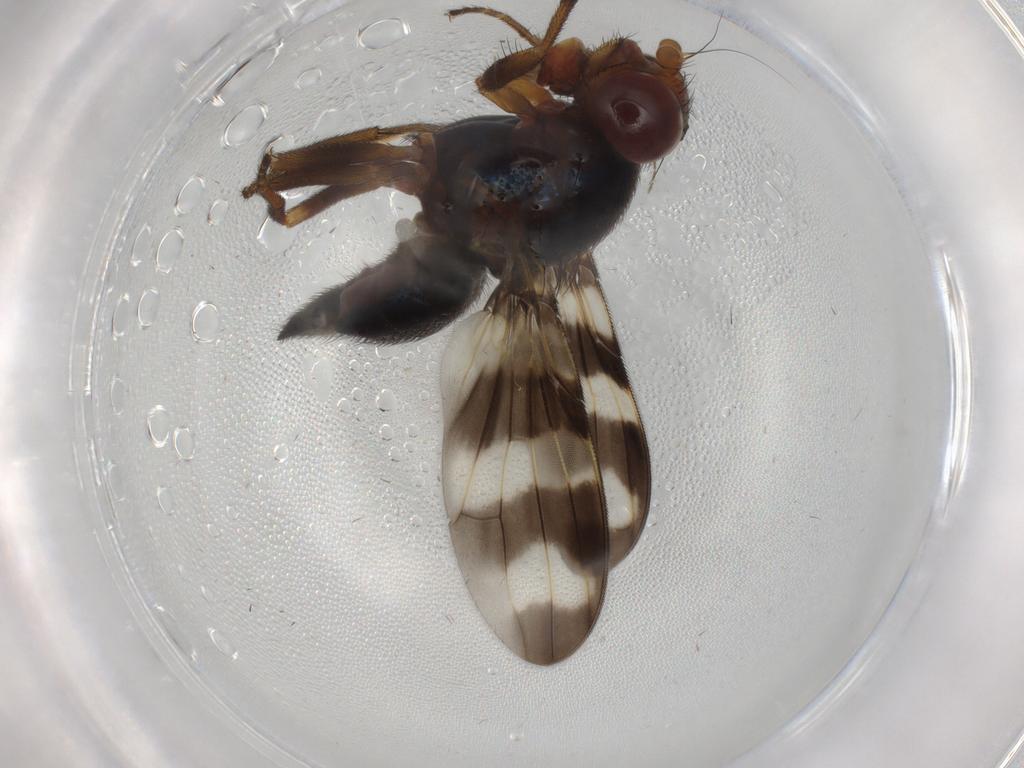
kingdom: Animalia
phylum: Arthropoda
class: Insecta
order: Diptera
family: Ulidiidae
